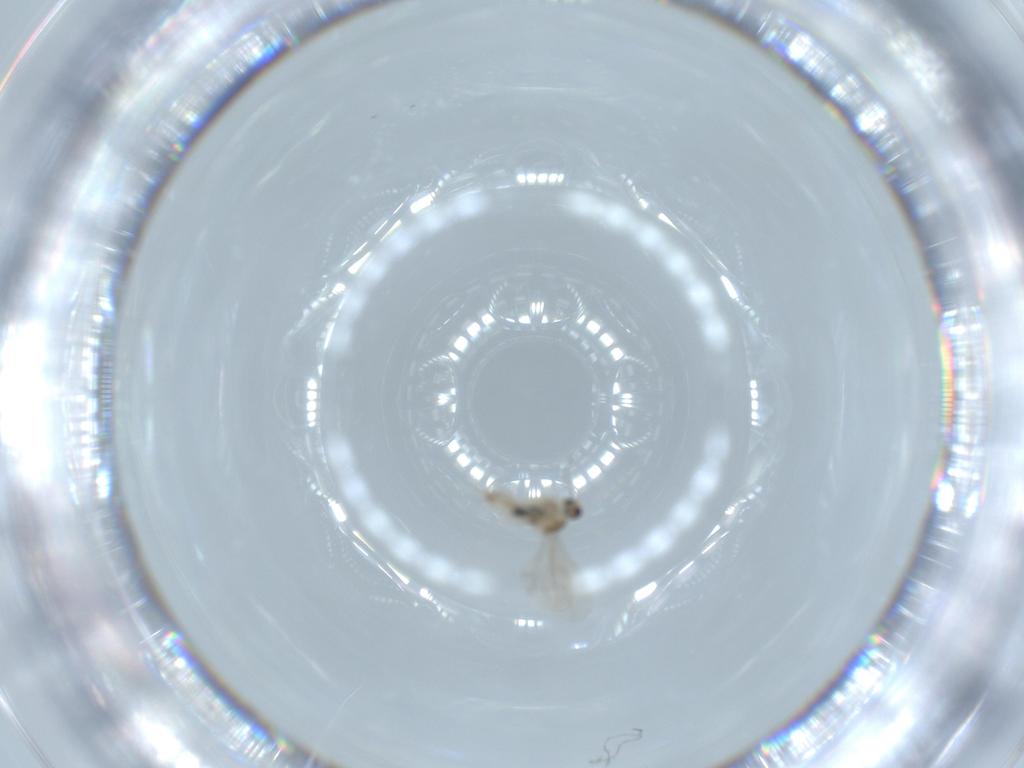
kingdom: Animalia
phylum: Arthropoda
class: Insecta
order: Diptera
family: Cecidomyiidae
